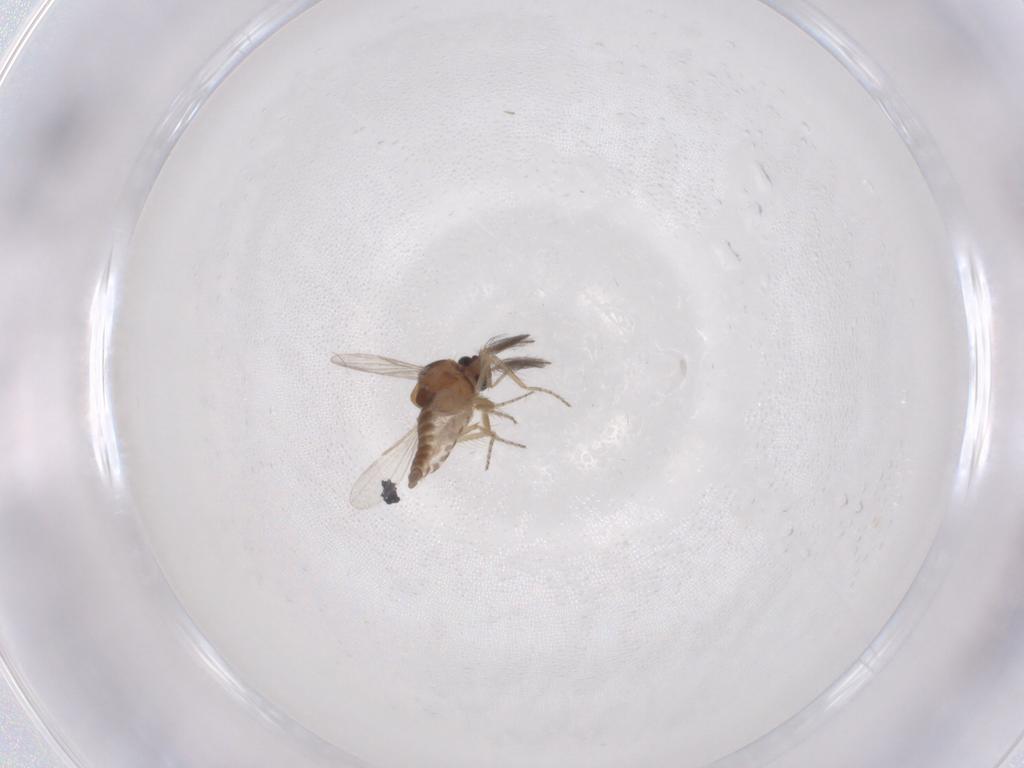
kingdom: Animalia
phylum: Arthropoda
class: Insecta
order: Diptera
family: Ceratopogonidae
